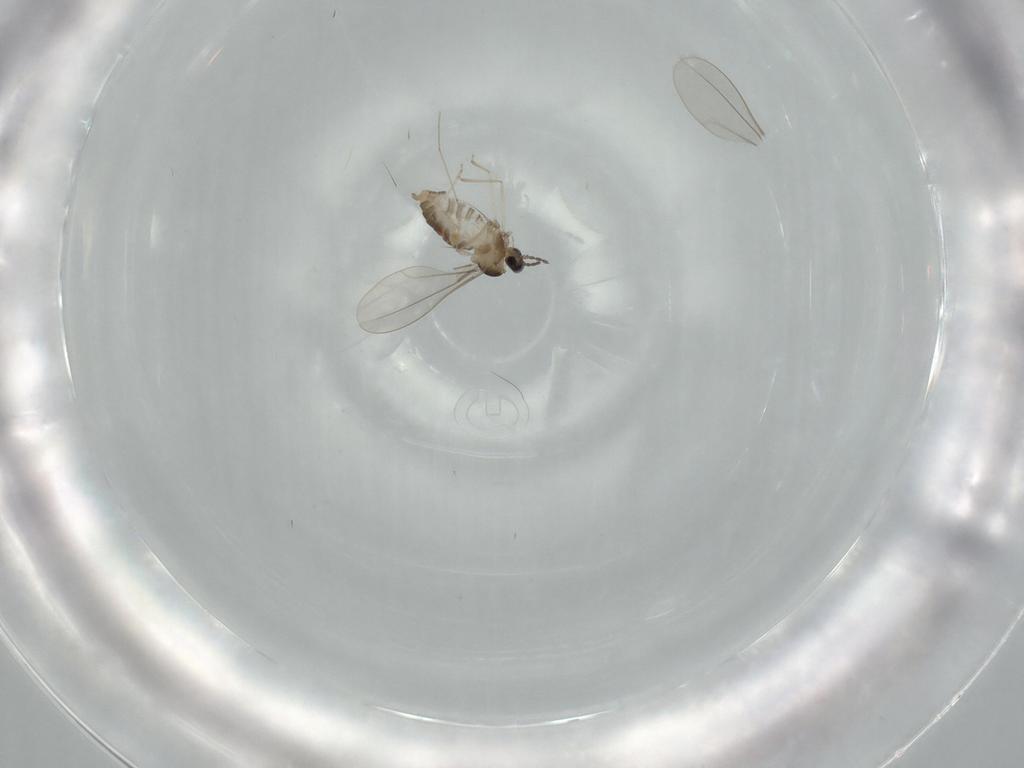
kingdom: Animalia
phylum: Arthropoda
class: Insecta
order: Diptera
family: Cecidomyiidae
